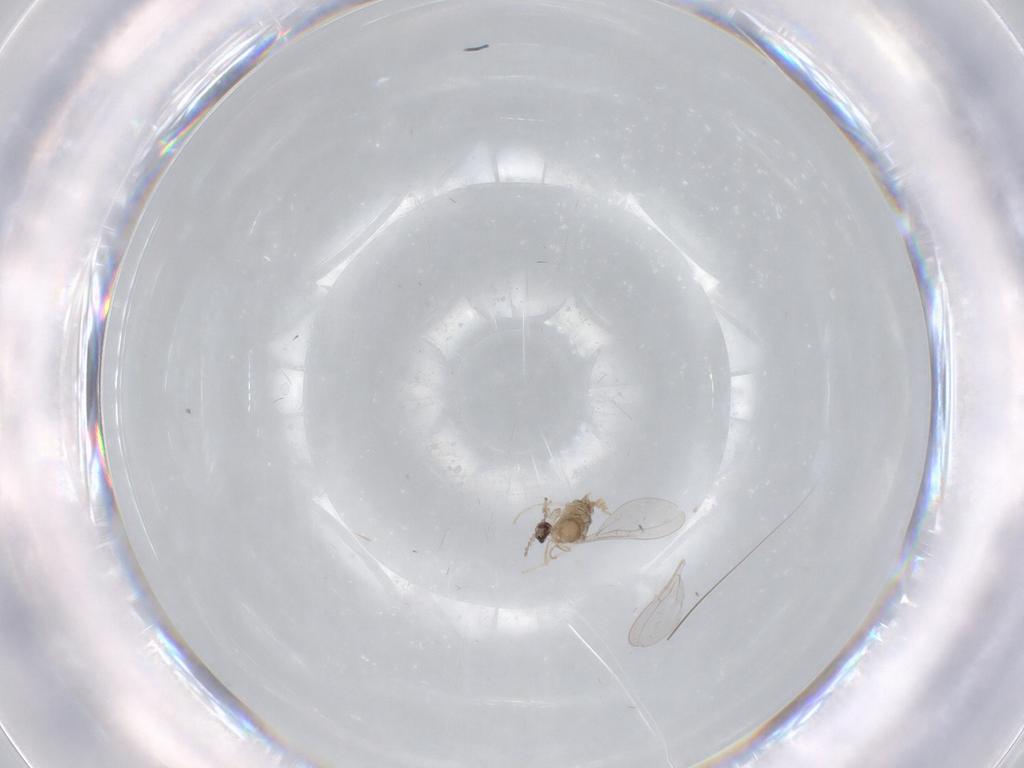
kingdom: Animalia
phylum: Arthropoda
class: Insecta
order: Diptera
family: Cecidomyiidae
